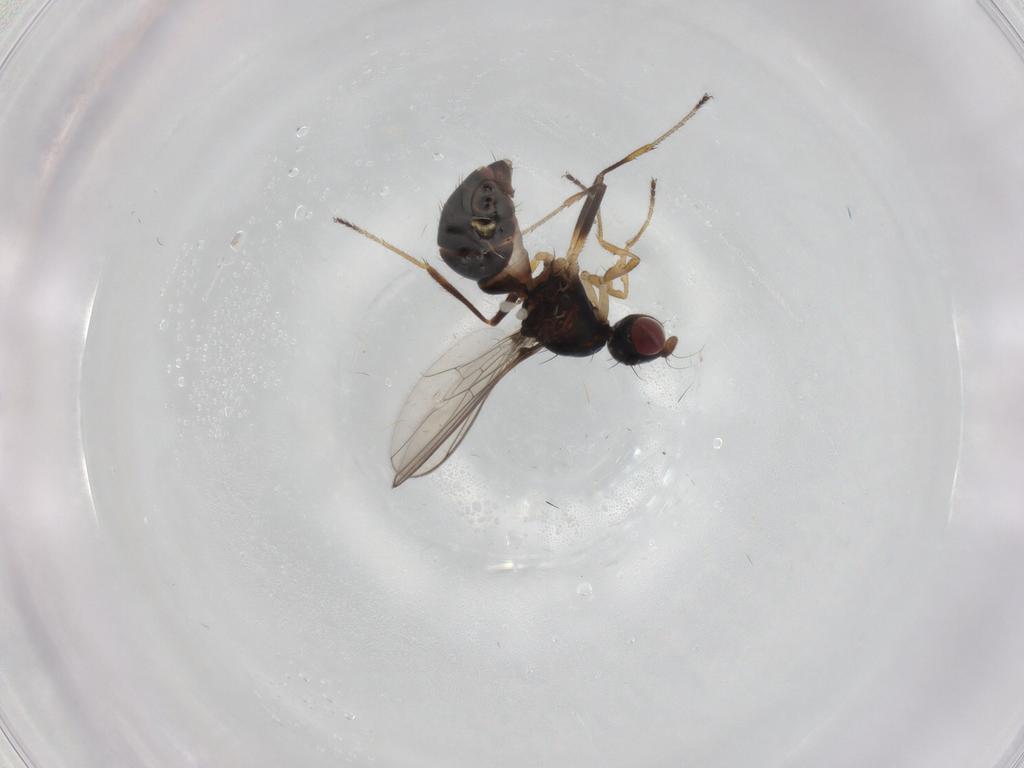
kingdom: Animalia
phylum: Arthropoda
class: Insecta
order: Diptera
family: Sepsidae
